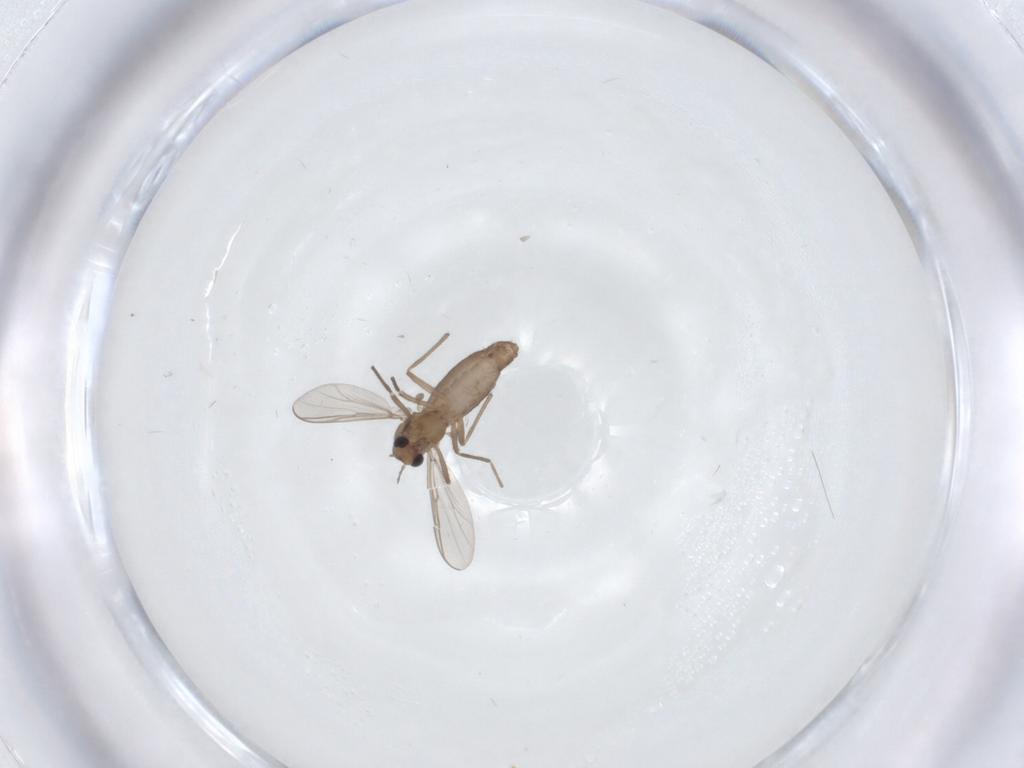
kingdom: Animalia
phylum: Arthropoda
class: Insecta
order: Diptera
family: Chironomidae
